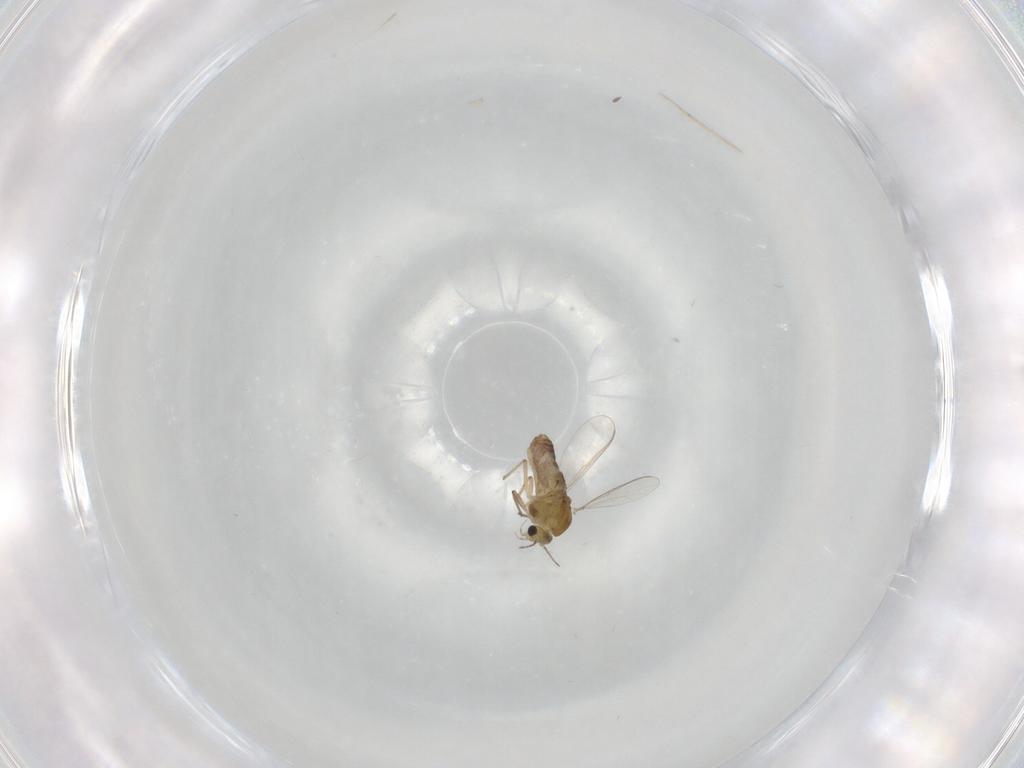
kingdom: Animalia
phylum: Arthropoda
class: Insecta
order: Diptera
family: Chironomidae
